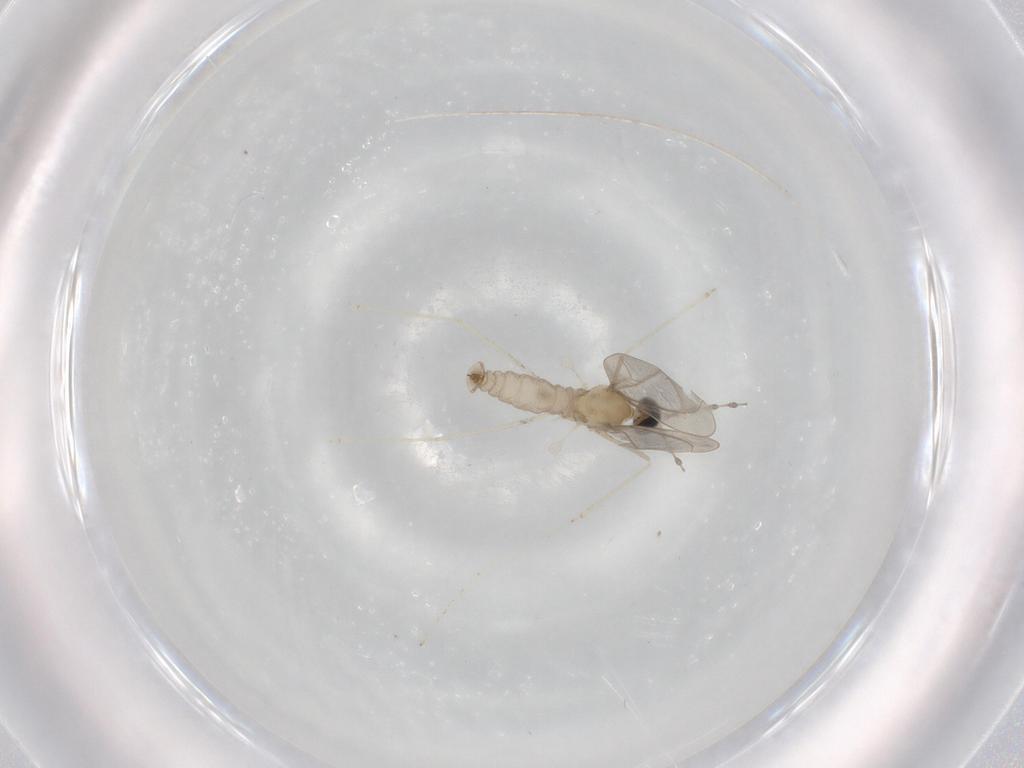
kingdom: Animalia
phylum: Arthropoda
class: Insecta
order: Diptera
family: Cecidomyiidae
